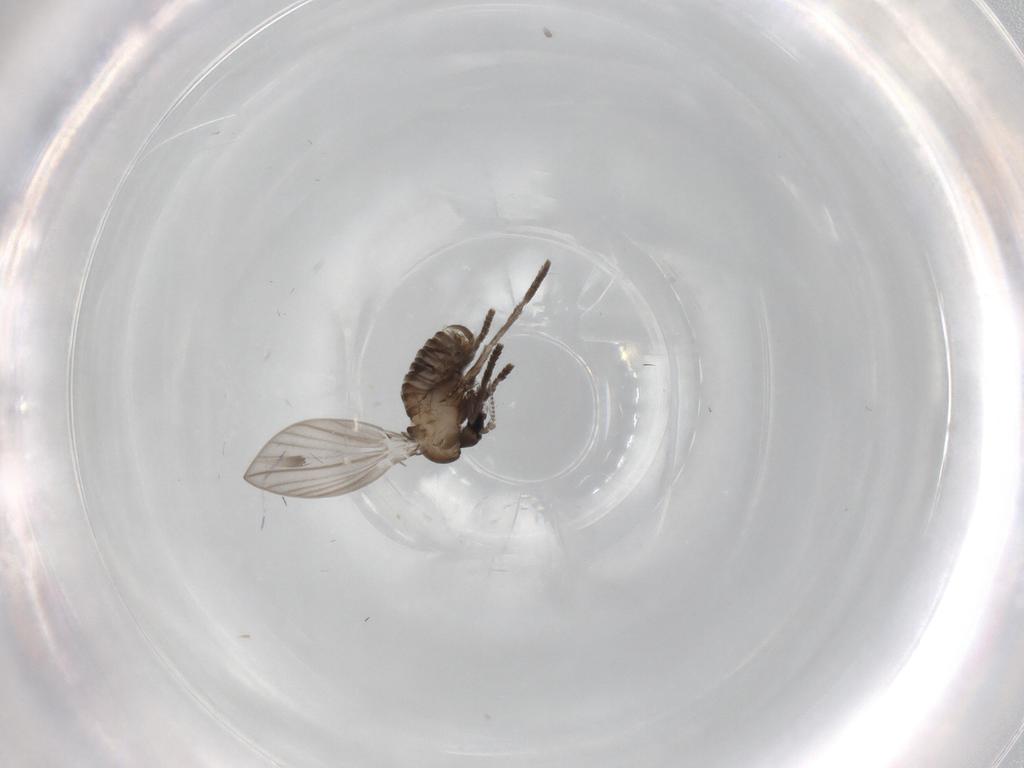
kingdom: Animalia
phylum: Arthropoda
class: Insecta
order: Diptera
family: Psychodidae
